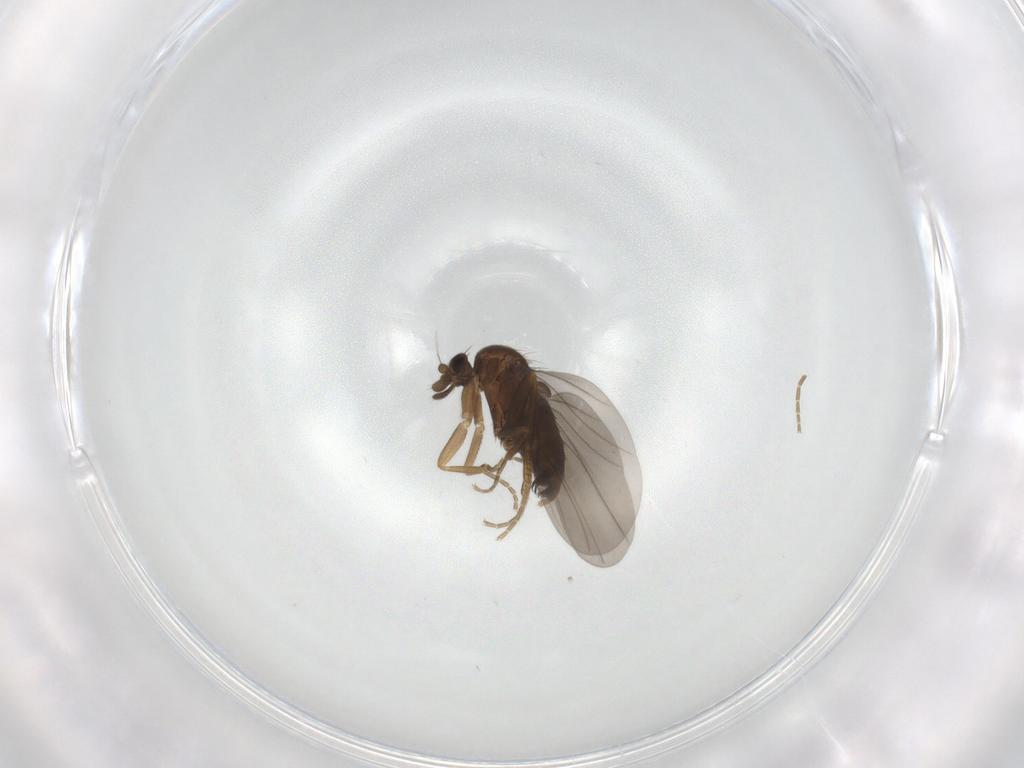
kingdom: Animalia
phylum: Arthropoda
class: Insecta
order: Diptera
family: Cecidomyiidae
